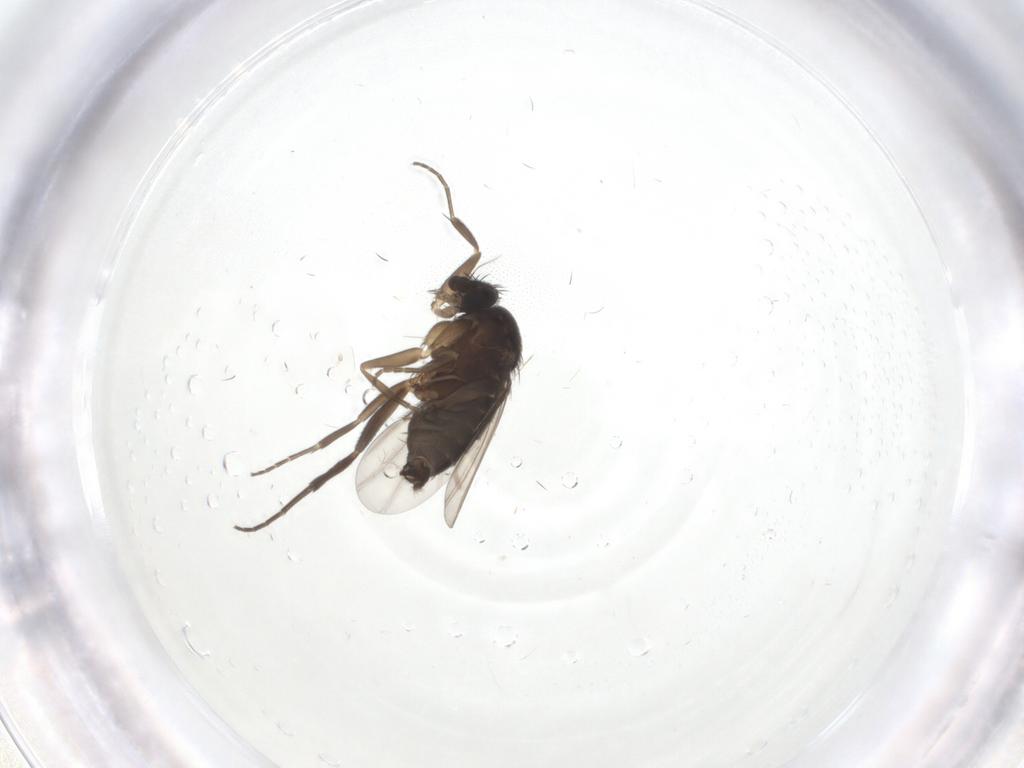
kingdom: Animalia
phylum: Arthropoda
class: Insecta
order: Diptera
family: Phoridae
